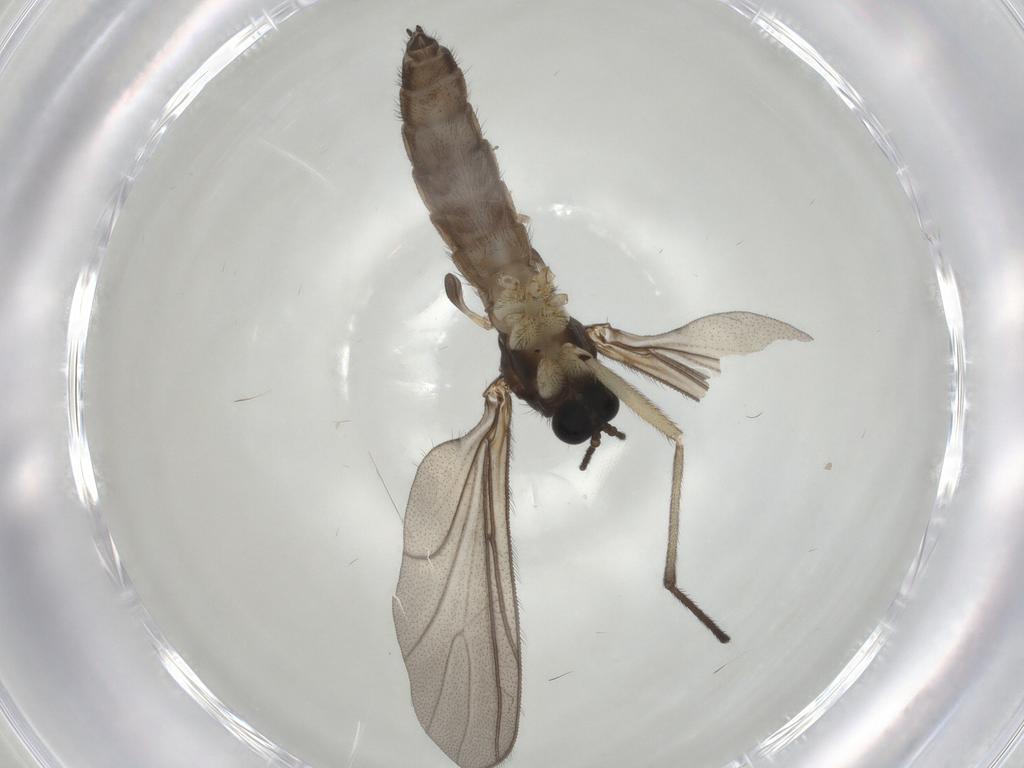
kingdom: Animalia
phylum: Arthropoda
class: Insecta
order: Diptera
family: Sciaridae
